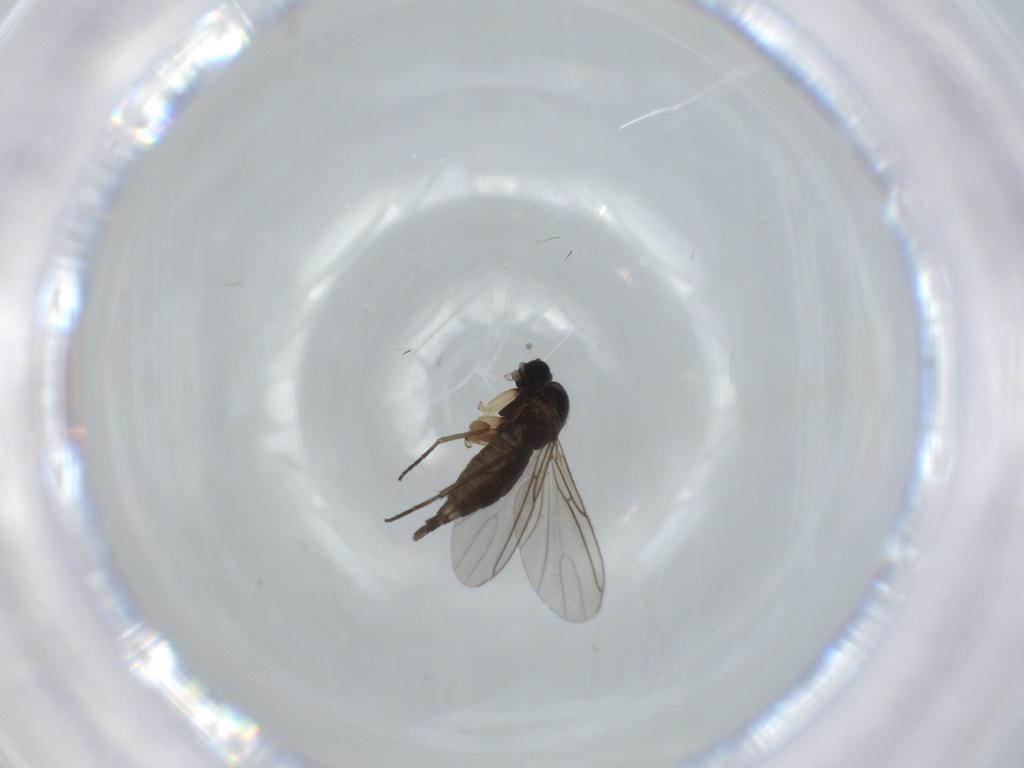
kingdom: Animalia
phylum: Arthropoda
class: Insecta
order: Diptera
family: Sciaridae
